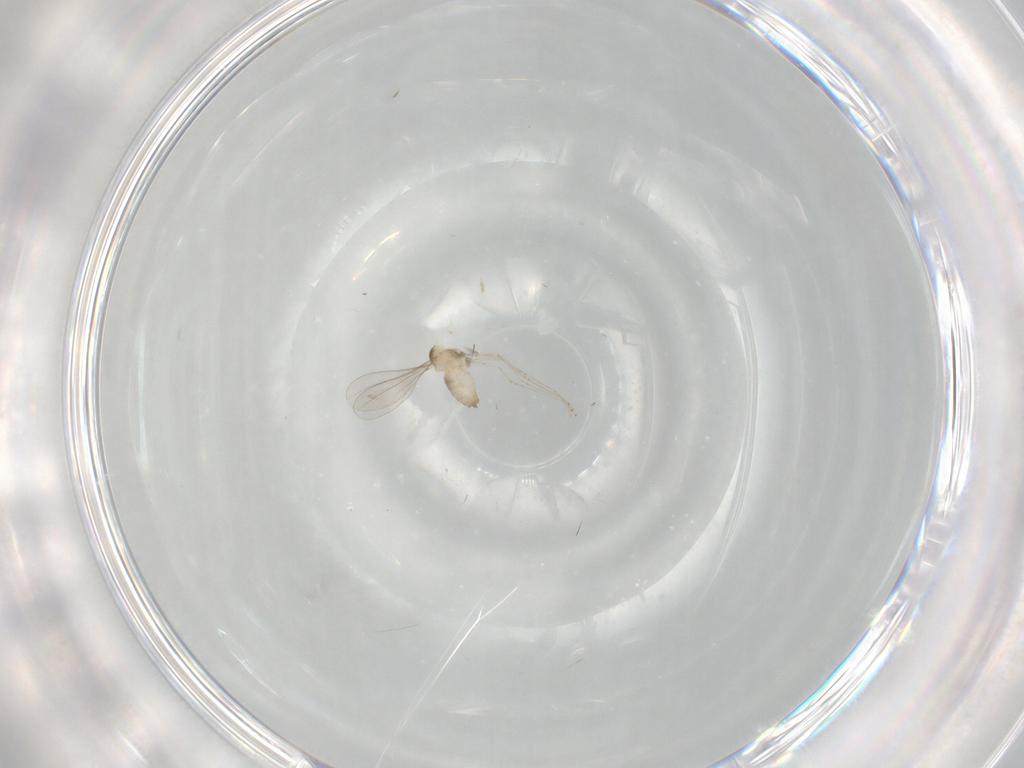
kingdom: Animalia
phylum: Arthropoda
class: Insecta
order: Diptera
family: Cecidomyiidae
